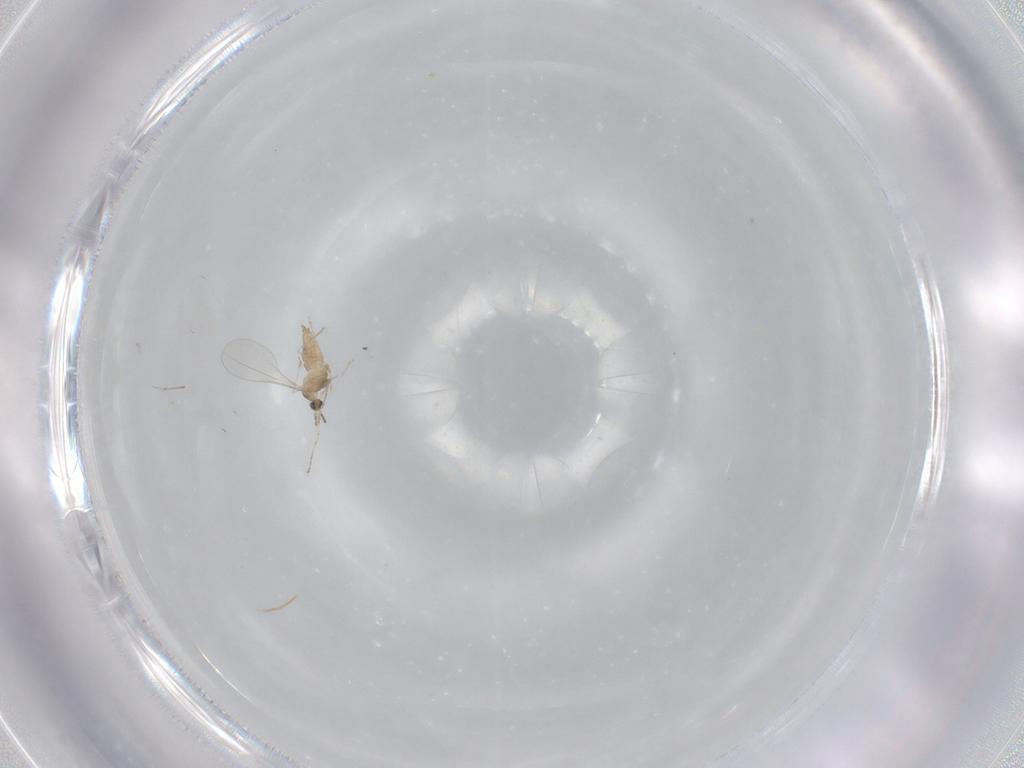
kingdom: Animalia
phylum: Arthropoda
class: Insecta
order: Diptera
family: Cecidomyiidae
